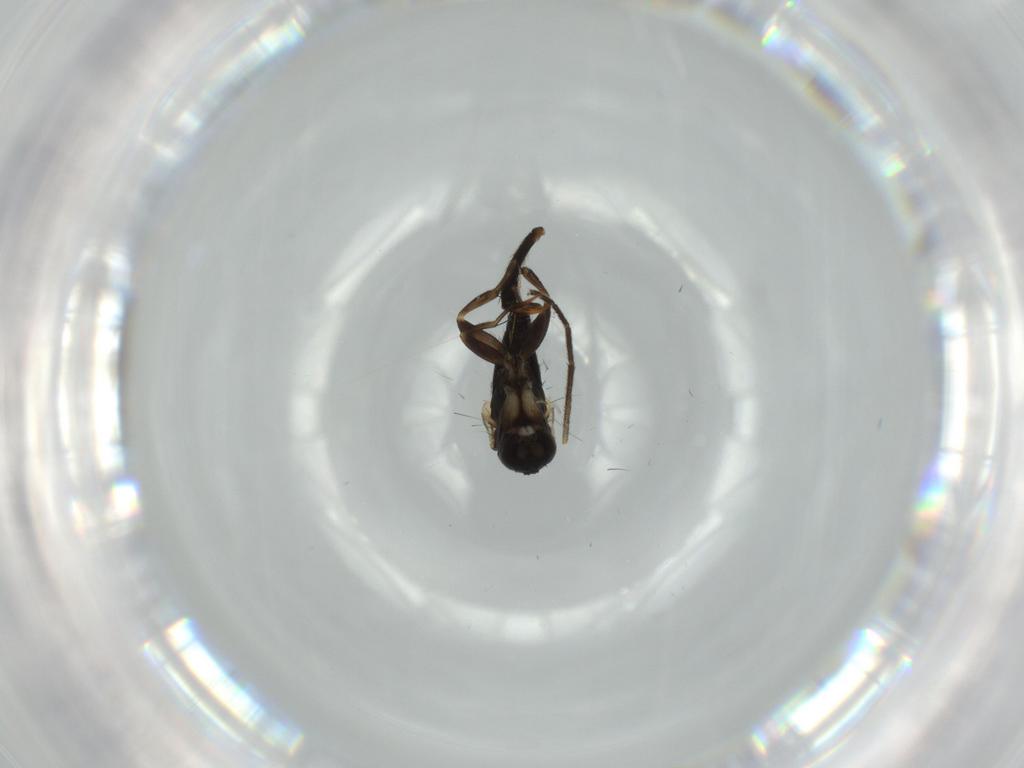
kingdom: Animalia
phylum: Arthropoda
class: Insecta
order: Diptera
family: Phoridae
